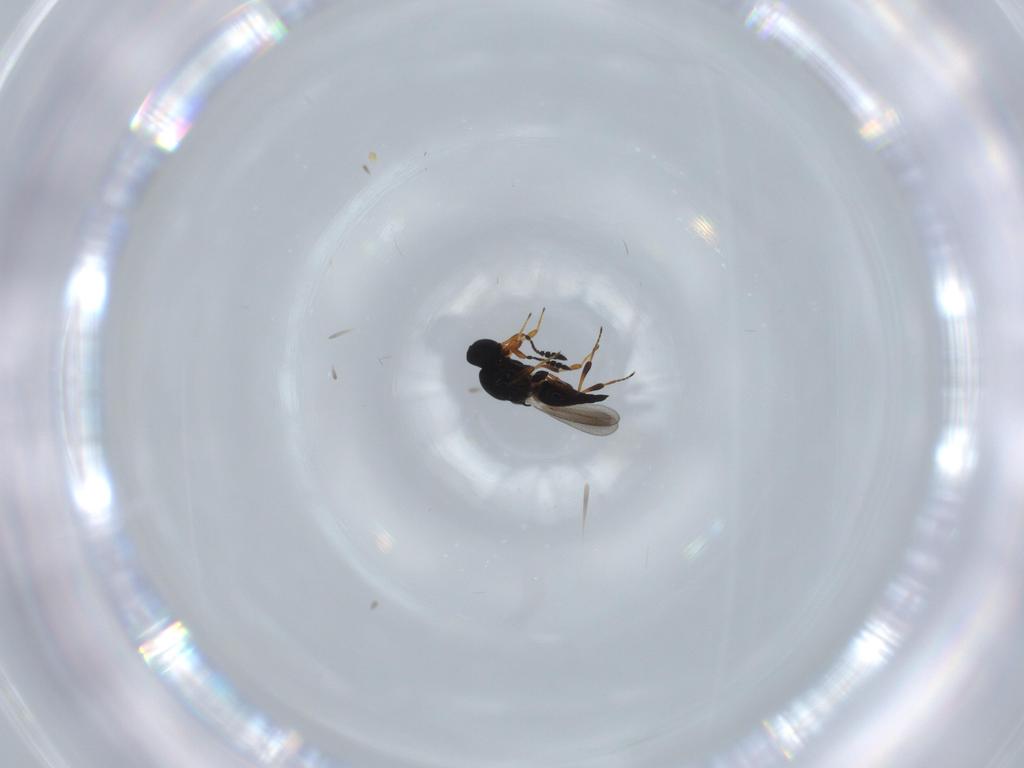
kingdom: Animalia
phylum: Arthropoda
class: Insecta
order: Hymenoptera
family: Platygastridae
